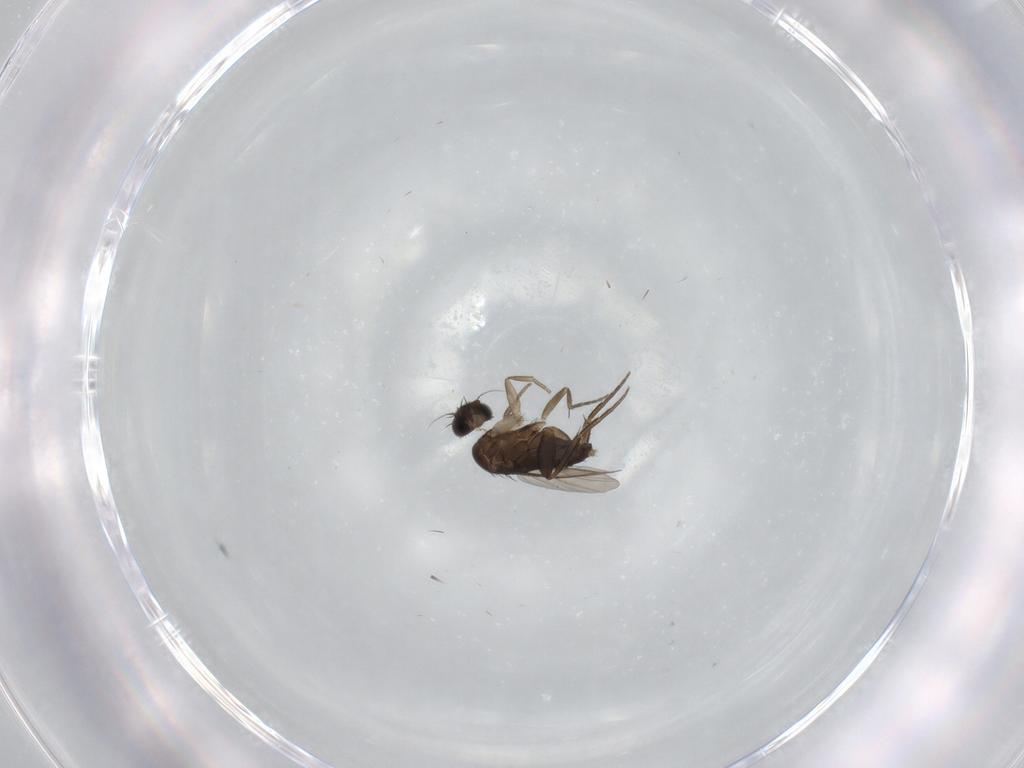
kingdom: Animalia
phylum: Arthropoda
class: Insecta
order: Diptera
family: Phoridae
